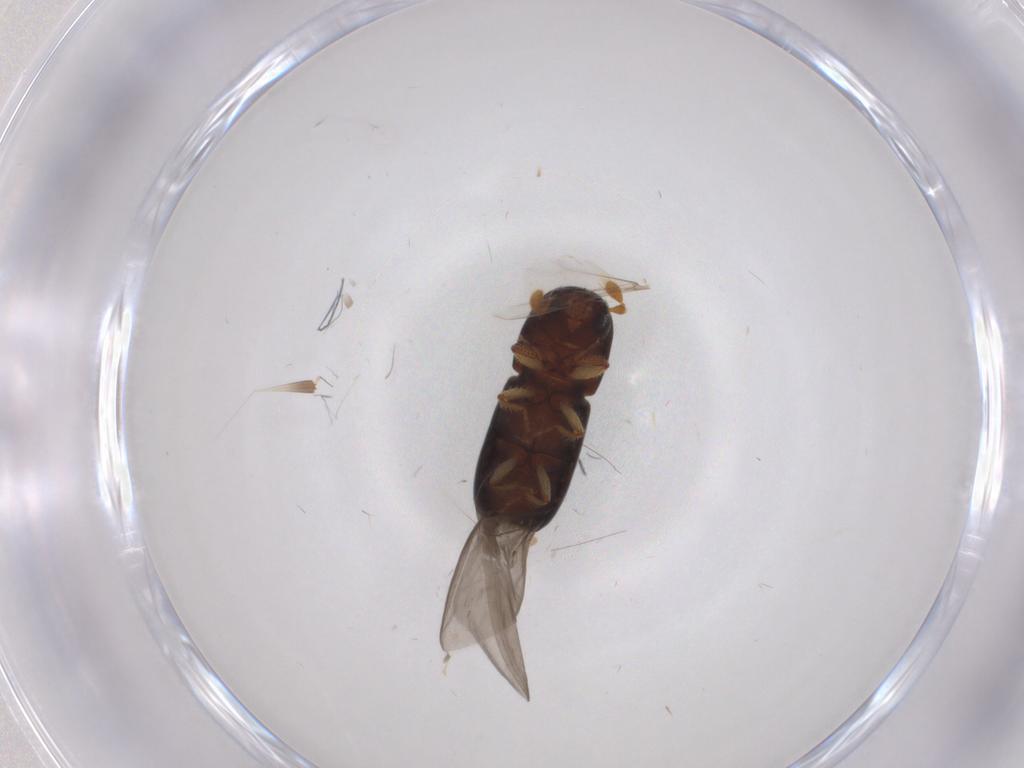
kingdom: Animalia
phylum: Arthropoda
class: Insecta
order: Coleoptera
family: Curculionidae
